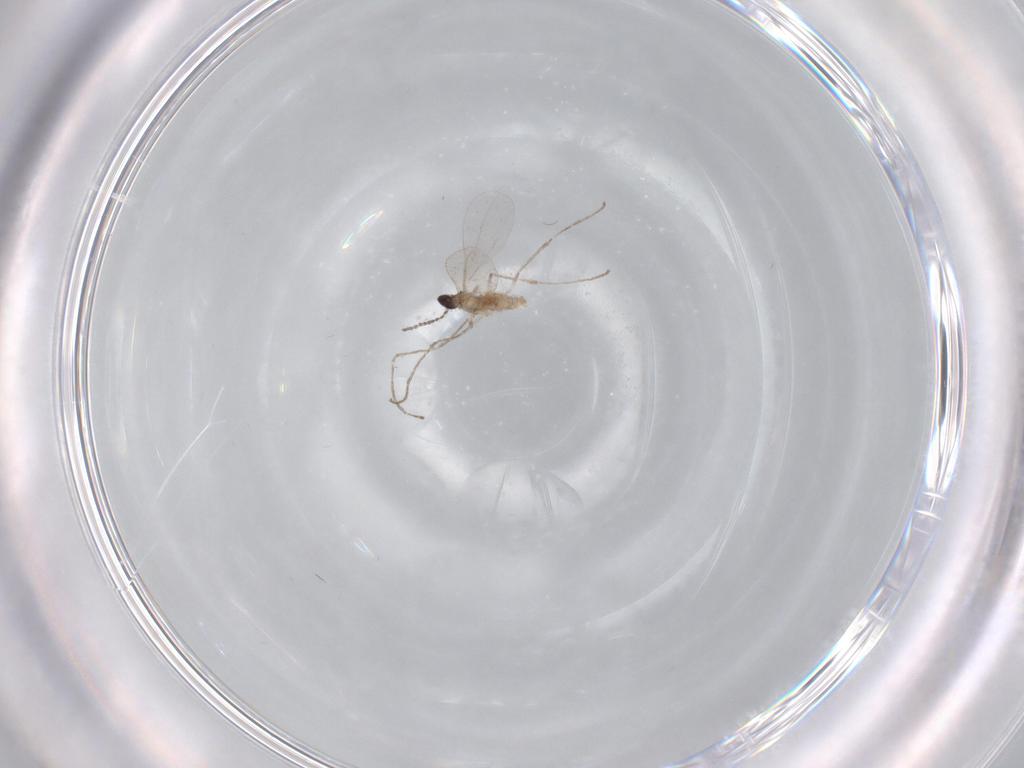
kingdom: Animalia
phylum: Arthropoda
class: Insecta
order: Diptera
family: Cecidomyiidae
